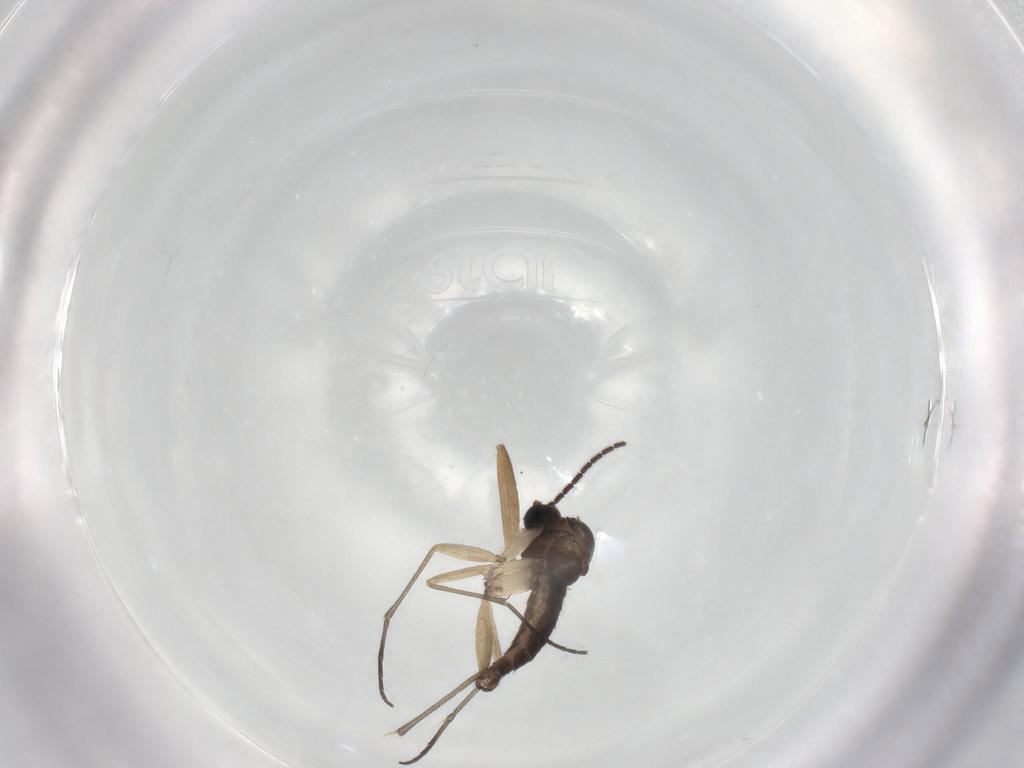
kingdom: Animalia
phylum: Arthropoda
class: Insecta
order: Diptera
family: Sciaridae
